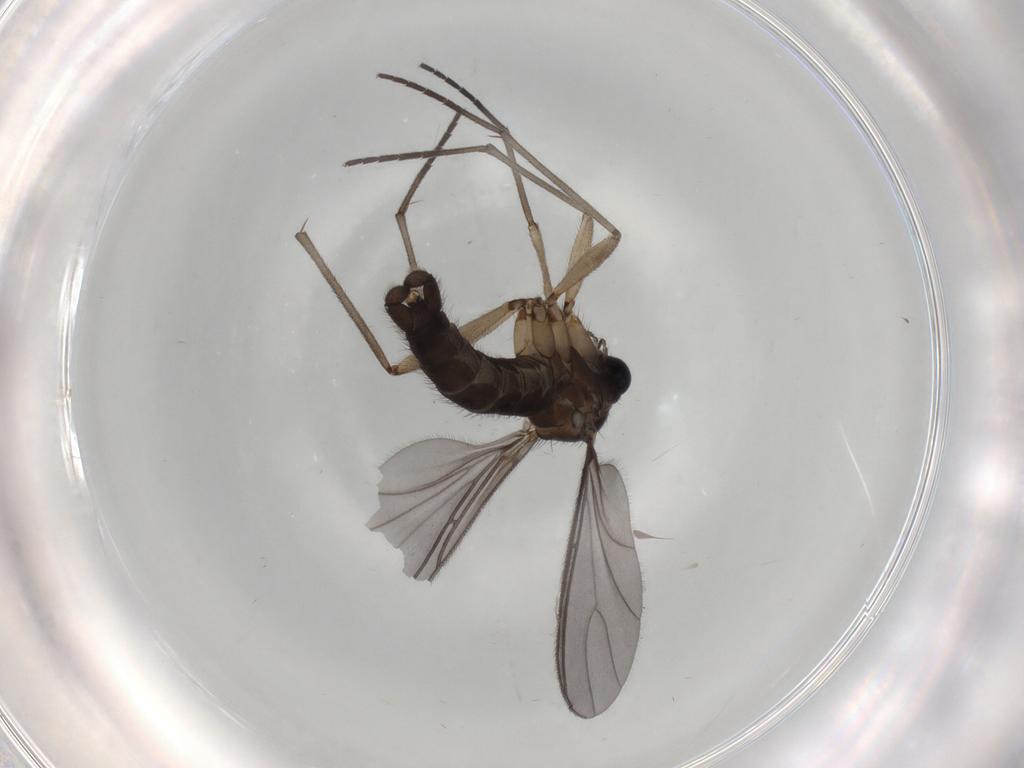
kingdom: Animalia
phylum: Arthropoda
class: Insecta
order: Diptera
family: Sciaridae
